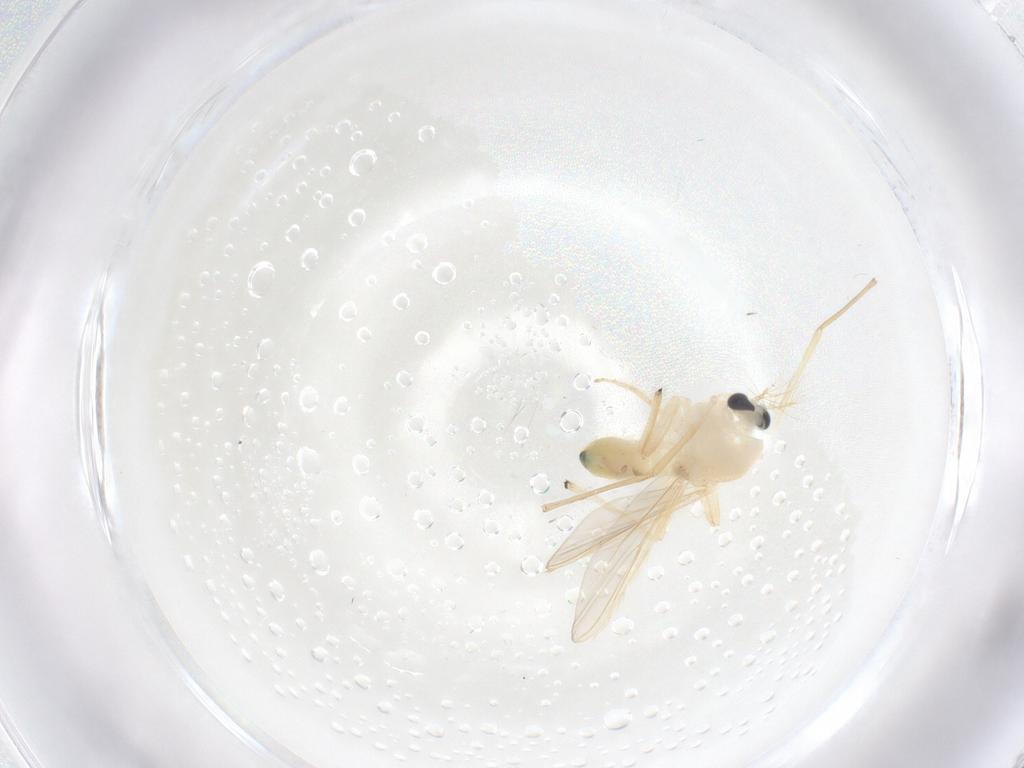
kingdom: Animalia
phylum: Arthropoda
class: Insecta
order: Diptera
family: Chironomidae
